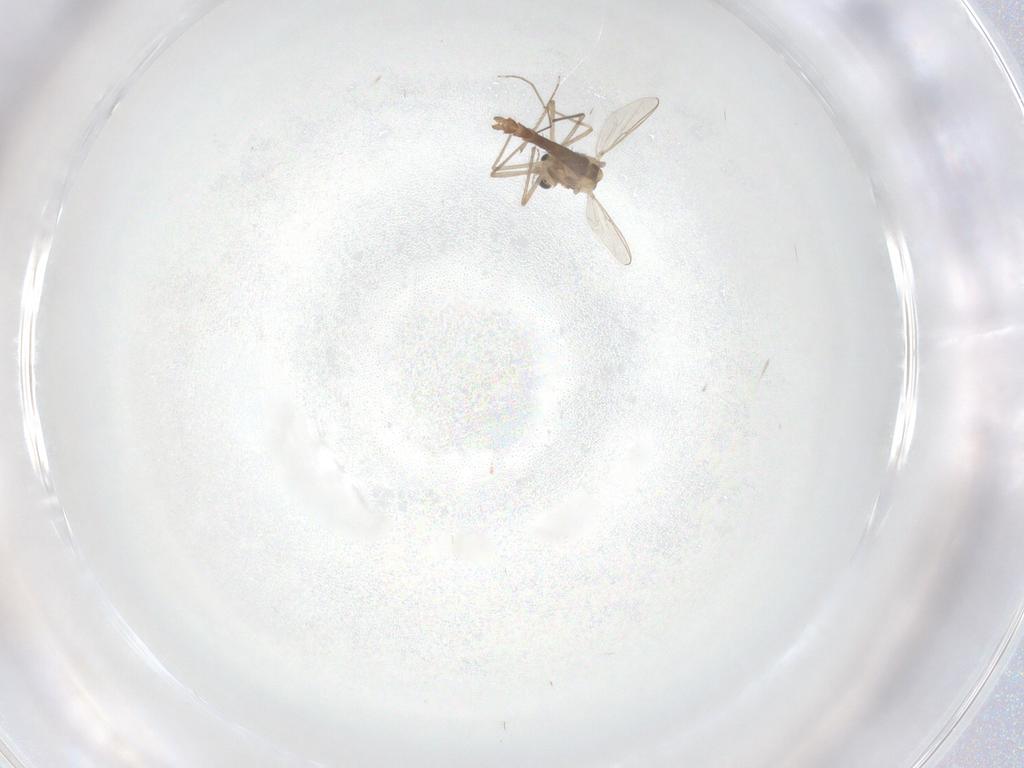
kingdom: Animalia
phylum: Arthropoda
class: Insecta
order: Diptera
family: Chironomidae
